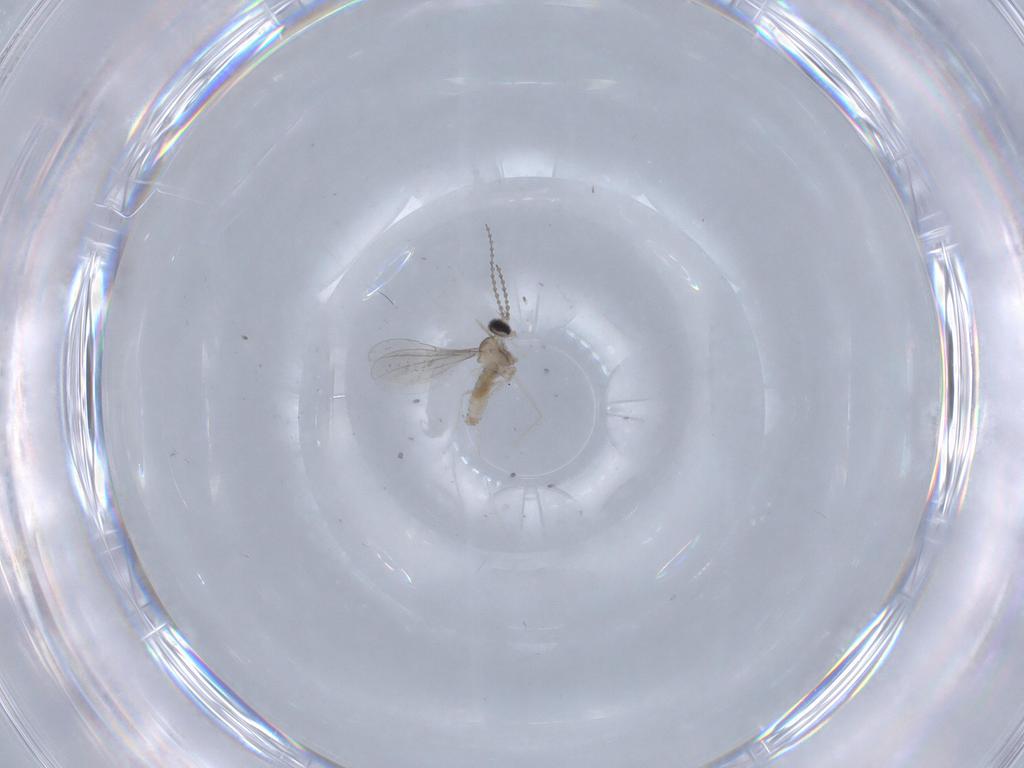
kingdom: Animalia
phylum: Arthropoda
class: Insecta
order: Diptera
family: Cecidomyiidae
